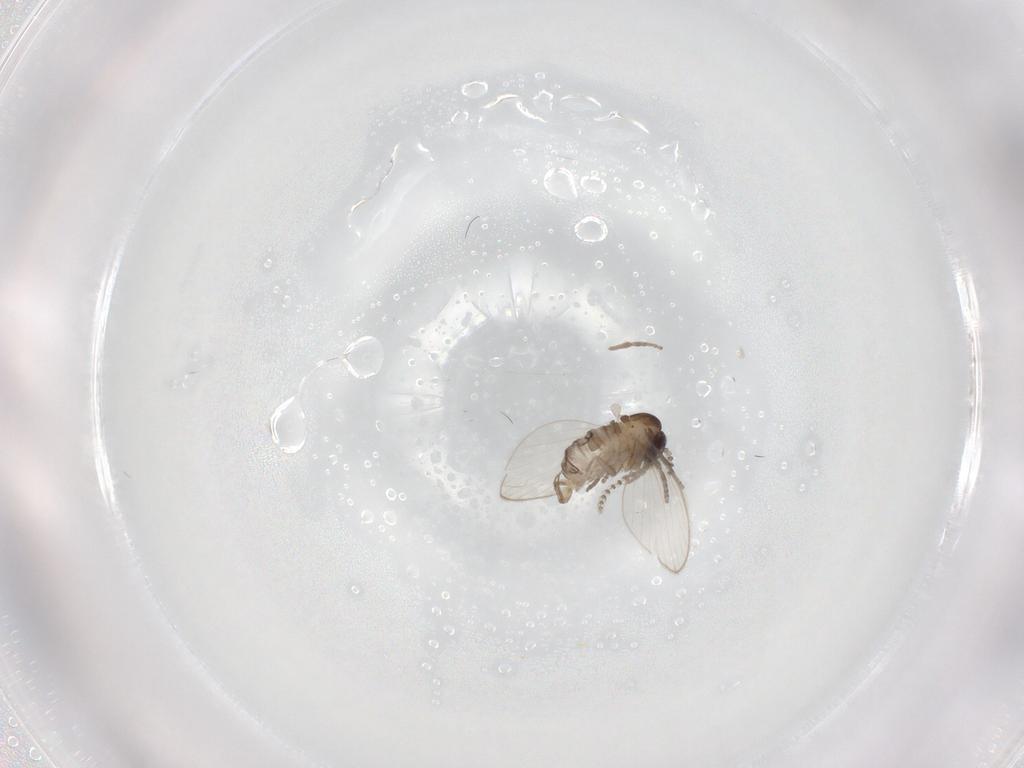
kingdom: Animalia
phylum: Arthropoda
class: Insecta
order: Diptera
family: Psychodidae
